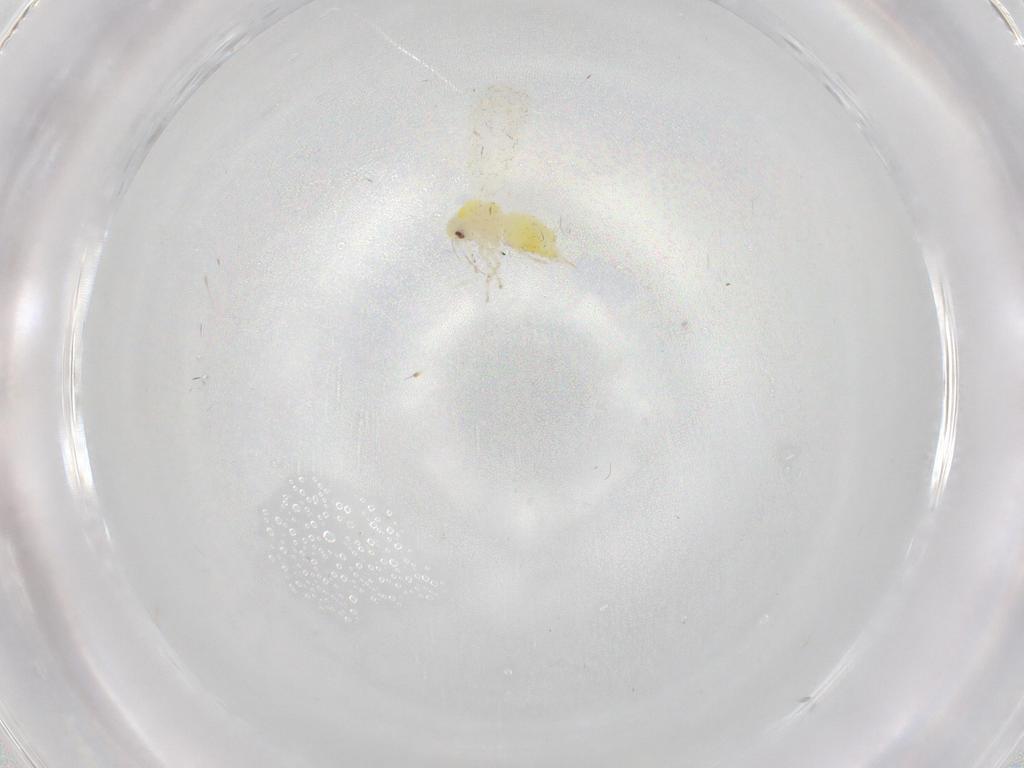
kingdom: Animalia
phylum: Arthropoda
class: Insecta
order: Hemiptera
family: Aleyrodidae
